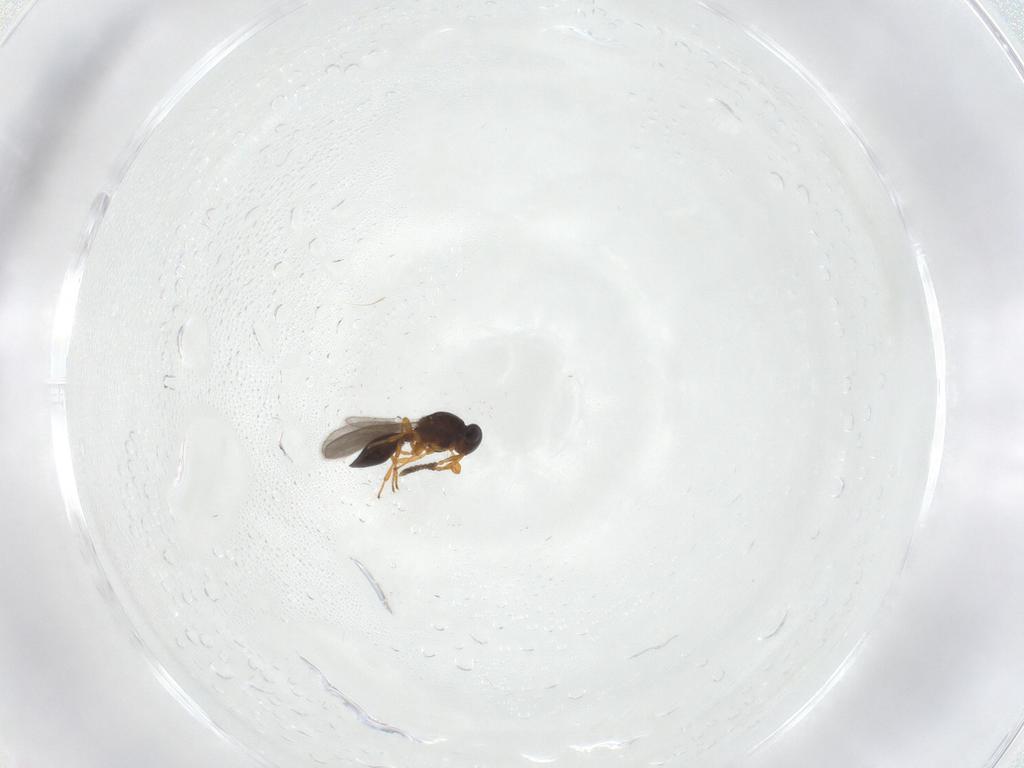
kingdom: Animalia
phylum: Arthropoda
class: Insecta
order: Hymenoptera
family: Platygastridae
